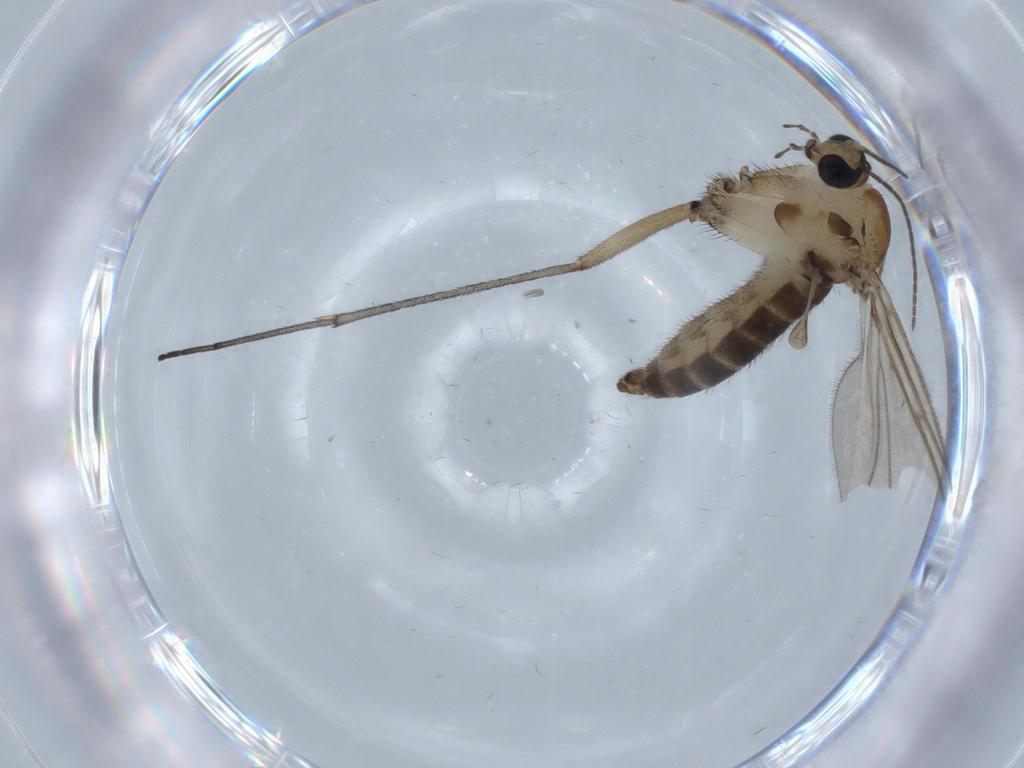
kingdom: Animalia
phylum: Arthropoda
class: Insecta
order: Diptera
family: Sciaridae
